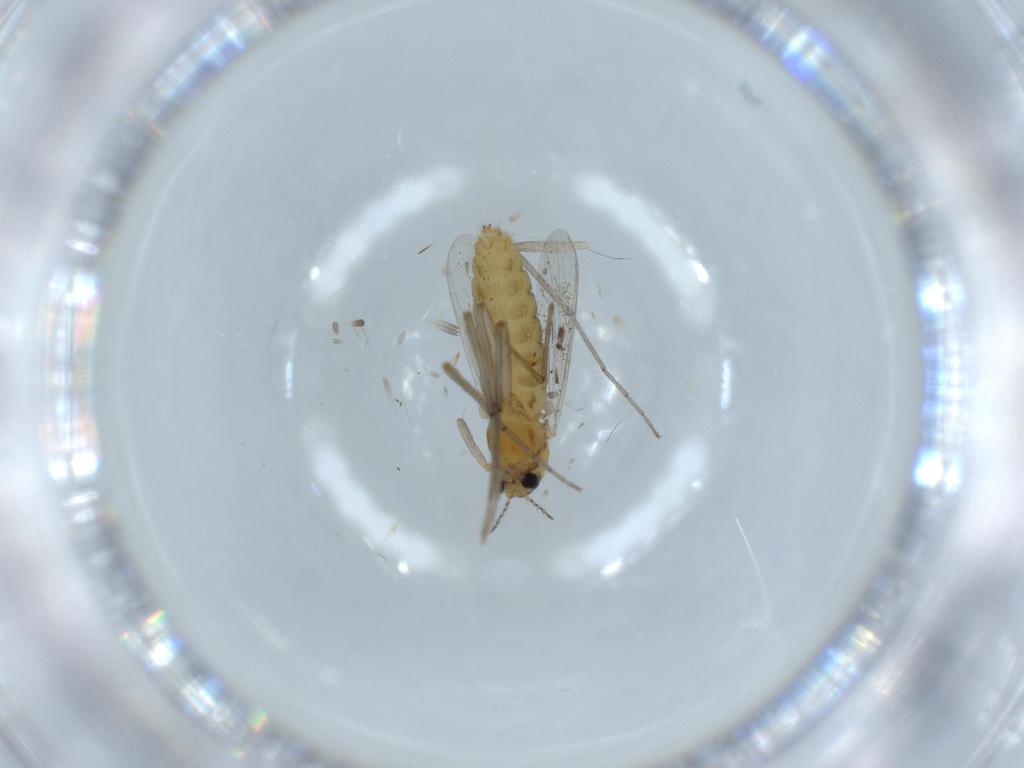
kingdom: Animalia
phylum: Arthropoda
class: Insecta
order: Diptera
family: Chironomidae
